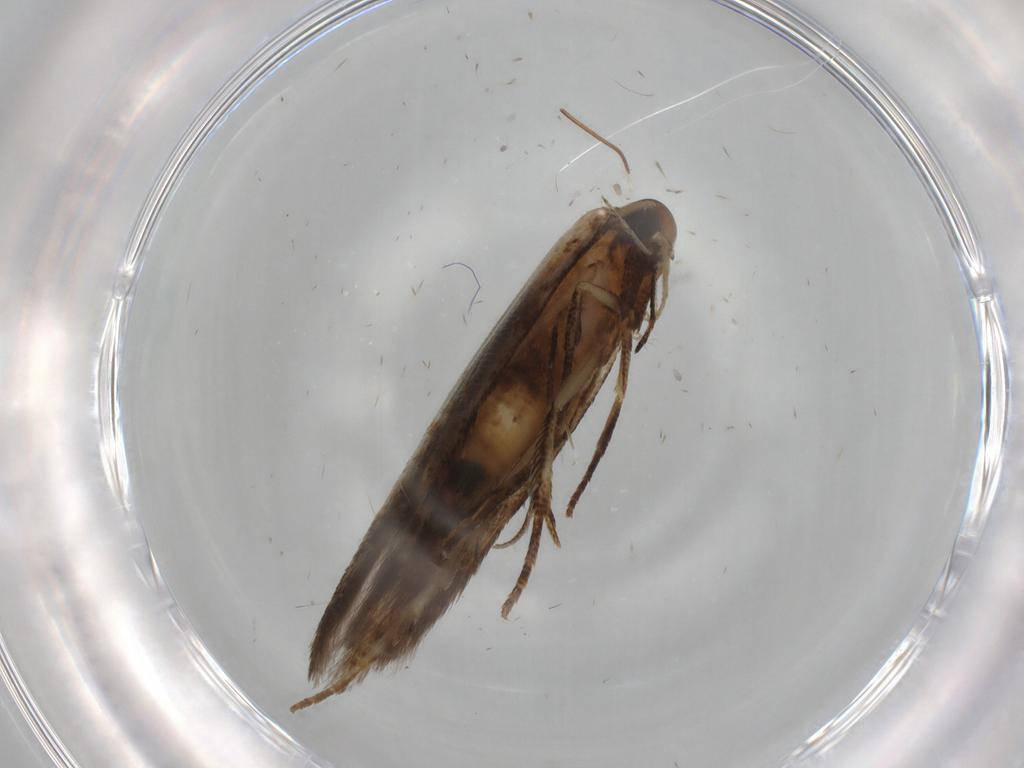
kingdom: Animalia
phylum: Arthropoda
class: Insecta
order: Lepidoptera
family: Cosmopterigidae
